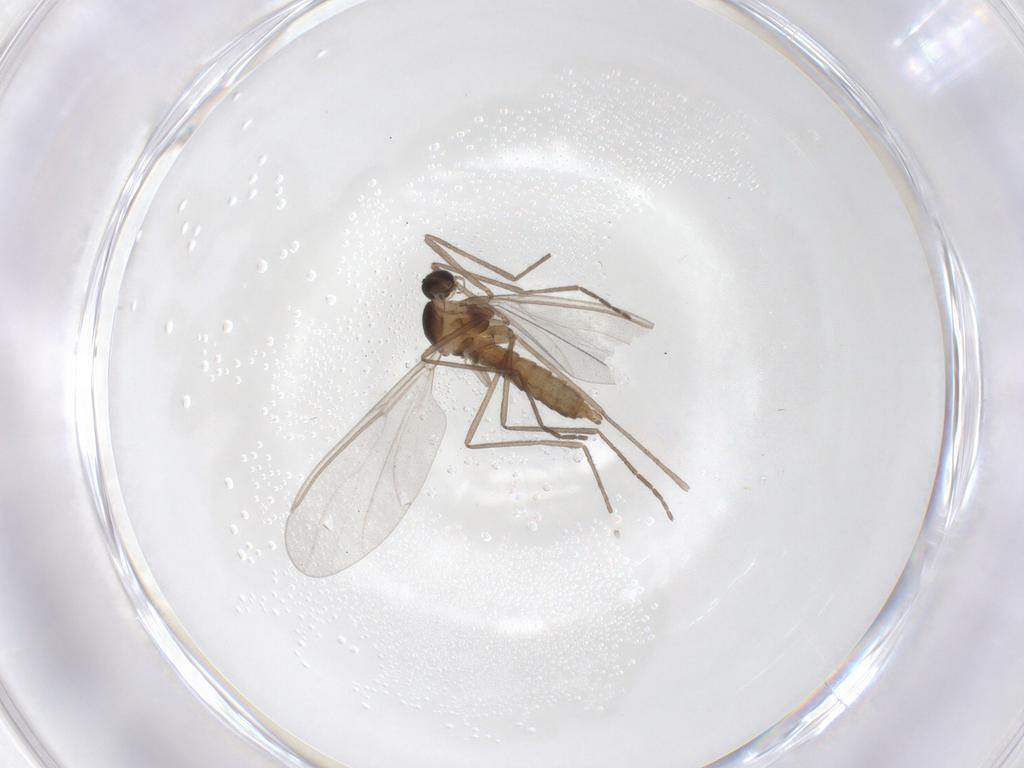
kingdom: Animalia
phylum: Arthropoda
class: Insecta
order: Diptera
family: Cecidomyiidae
